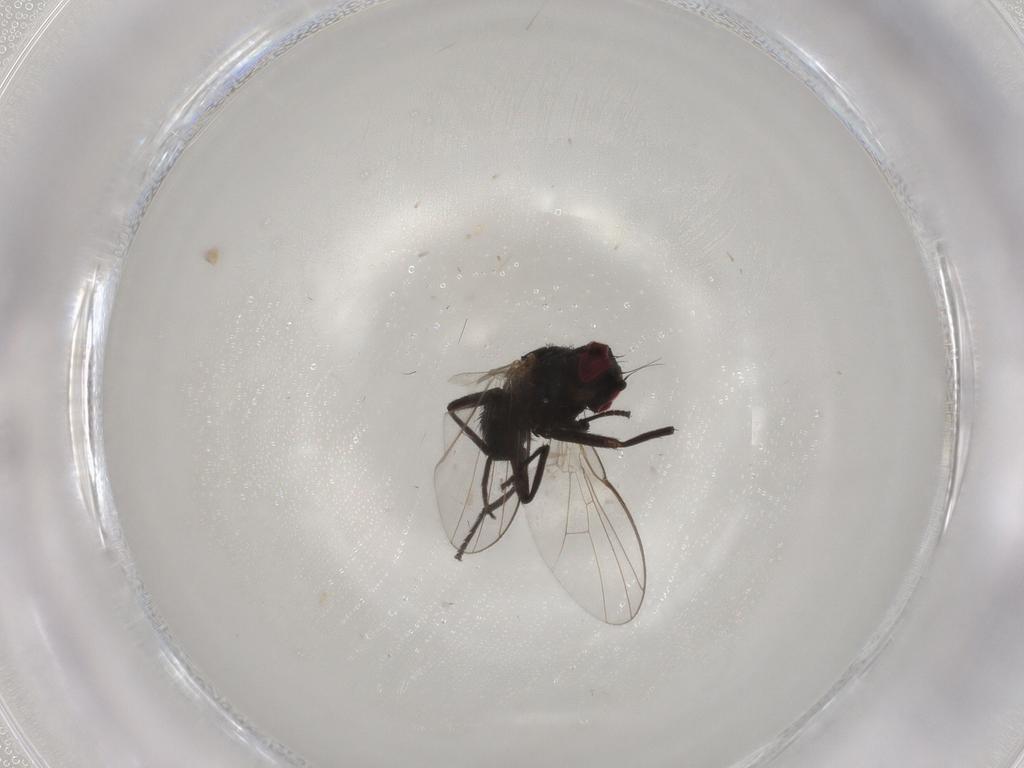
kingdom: Animalia
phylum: Arthropoda
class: Insecta
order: Diptera
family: Agromyzidae
